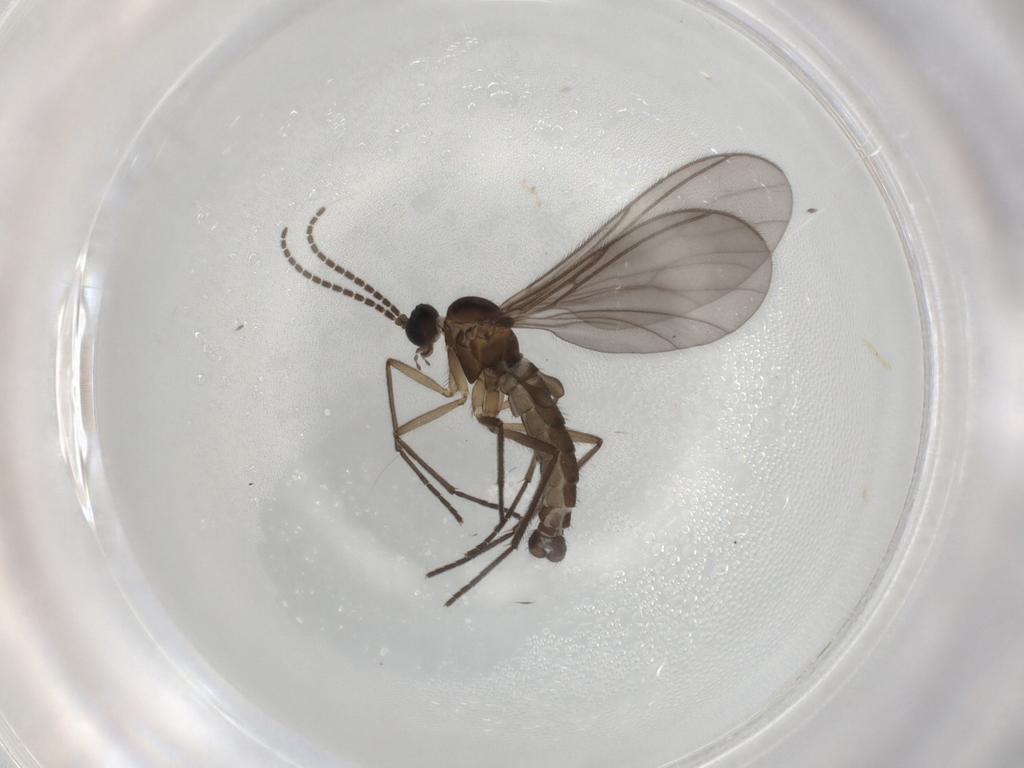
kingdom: Animalia
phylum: Arthropoda
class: Insecta
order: Diptera
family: Sciaridae
